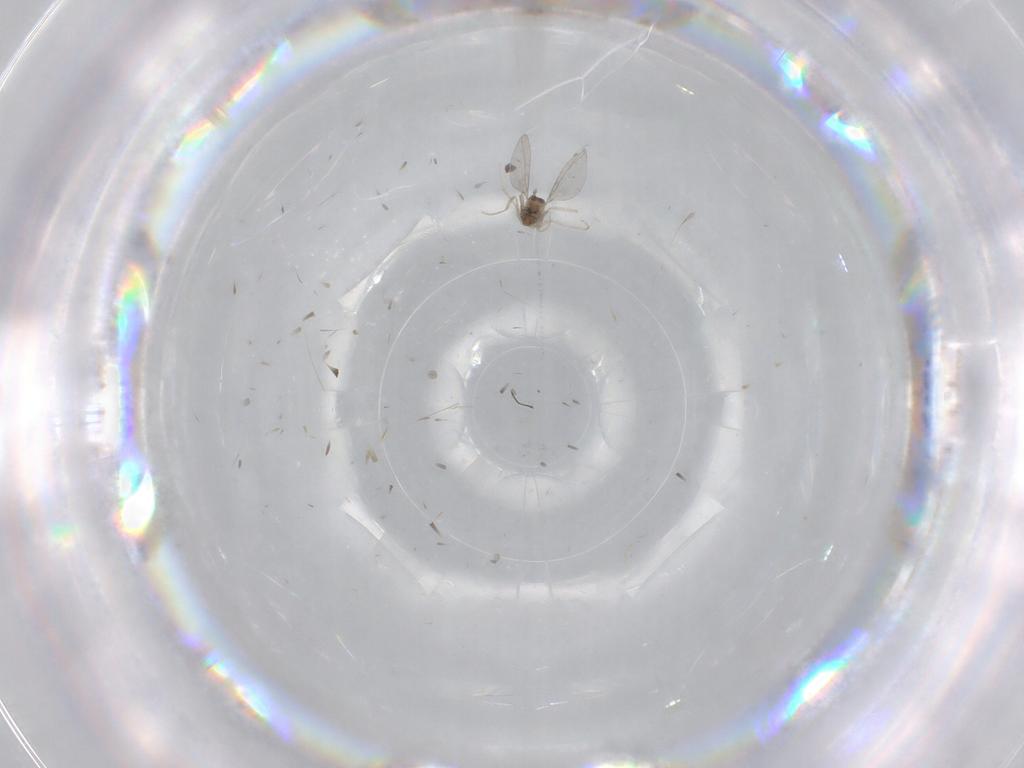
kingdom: Animalia
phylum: Arthropoda
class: Insecta
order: Diptera
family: Cecidomyiidae
